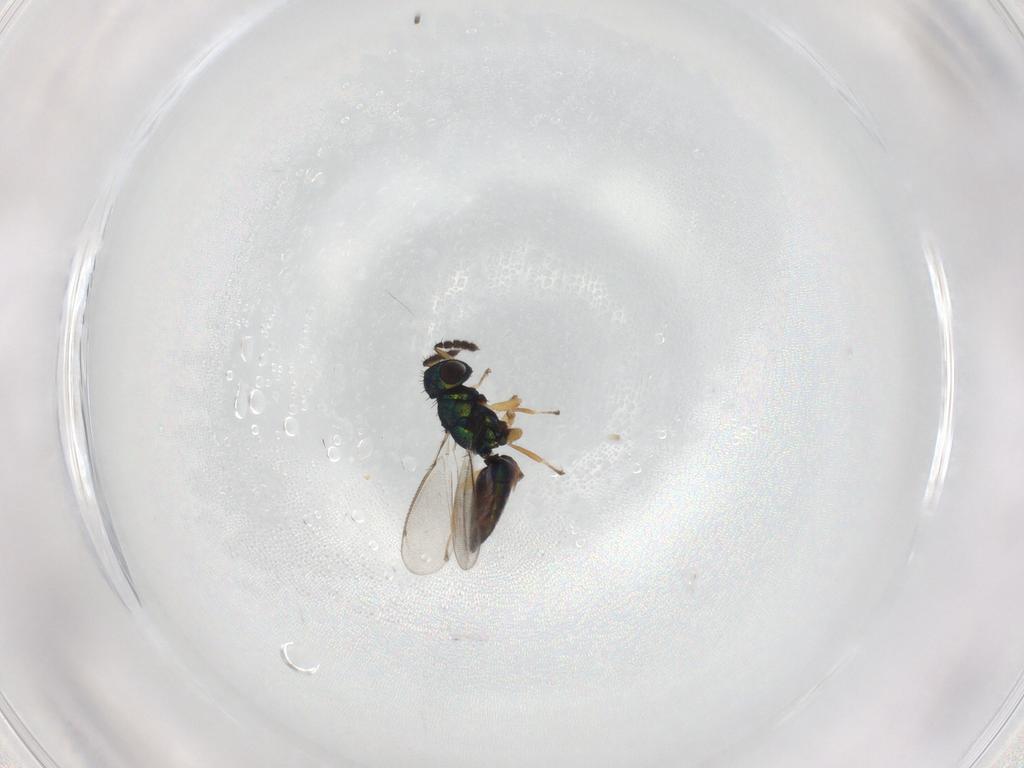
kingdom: Animalia
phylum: Arthropoda
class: Insecta
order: Hymenoptera
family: Eulophidae
